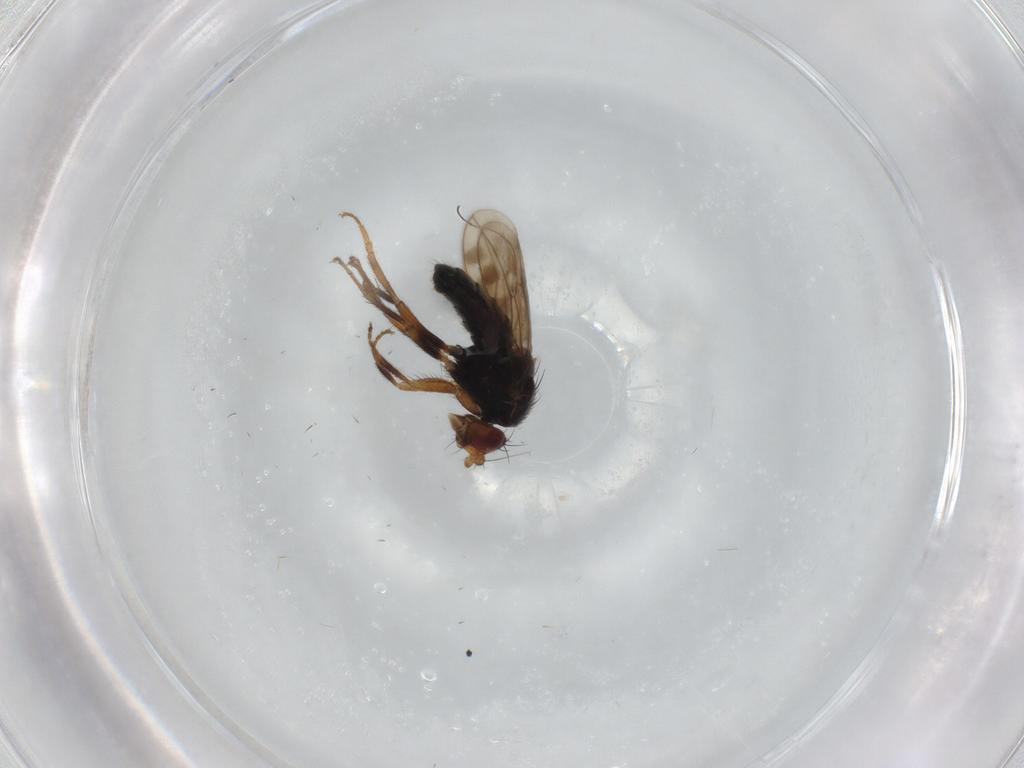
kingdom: Animalia
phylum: Arthropoda
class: Insecta
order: Diptera
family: Sphaeroceridae
